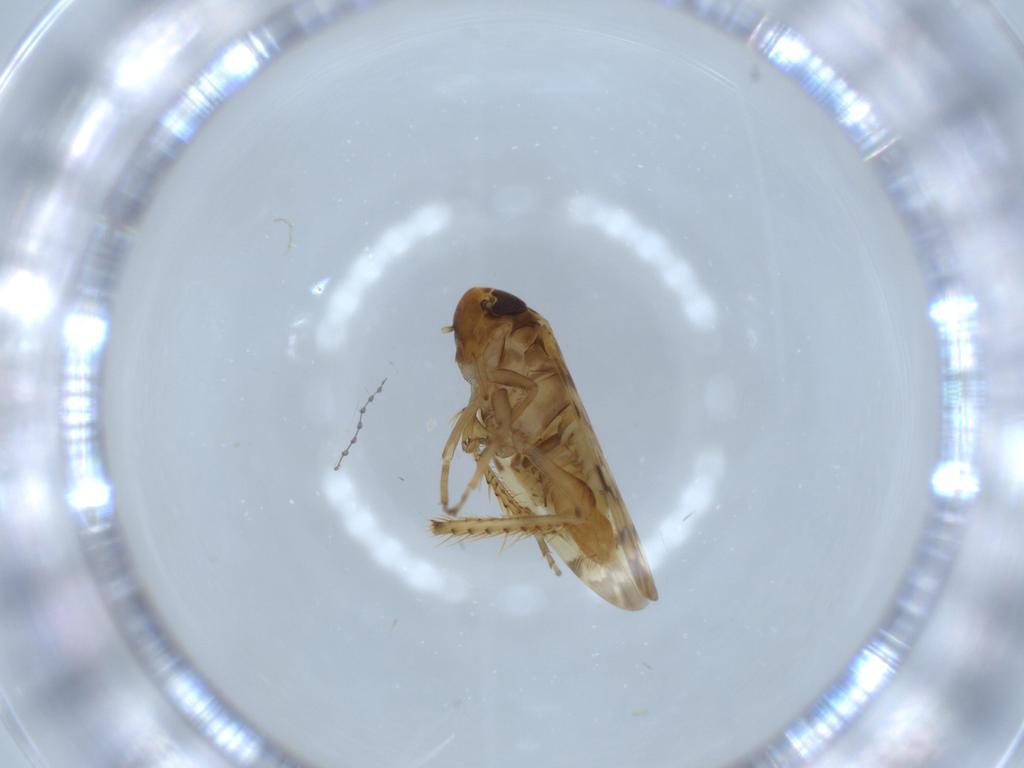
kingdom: Animalia
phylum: Arthropoda
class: Insecta
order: Hemiptera
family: Cicadellidae
